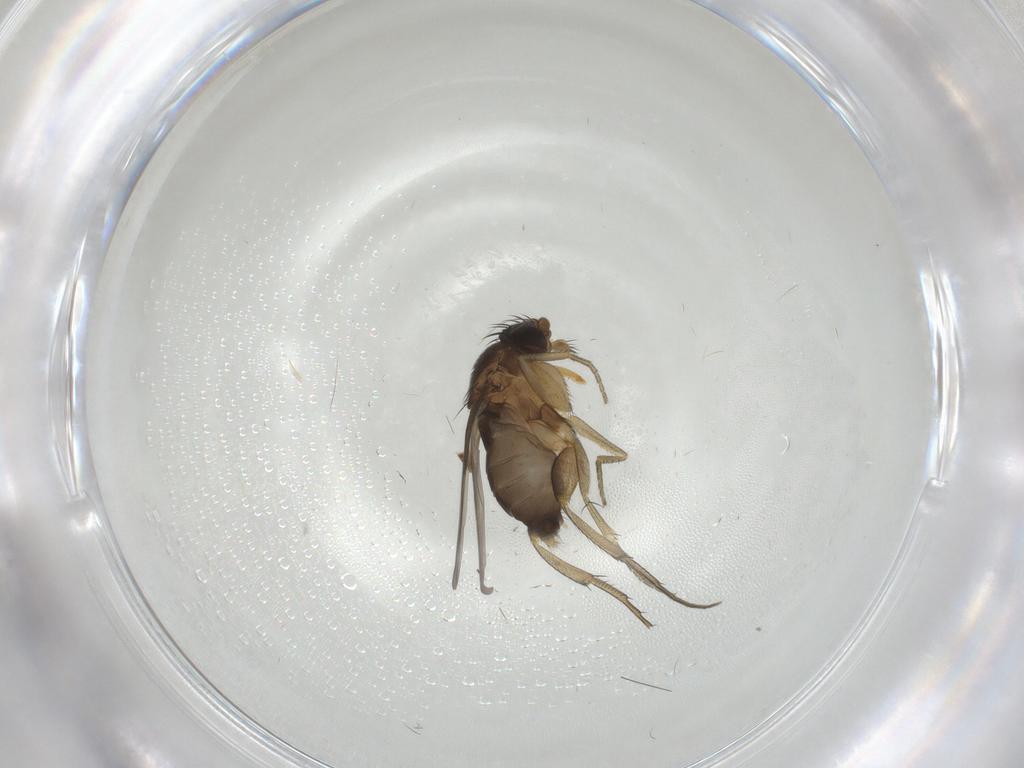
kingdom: Animalia
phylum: Arthropoda
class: Insecta
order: Diptera
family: Phoridae
